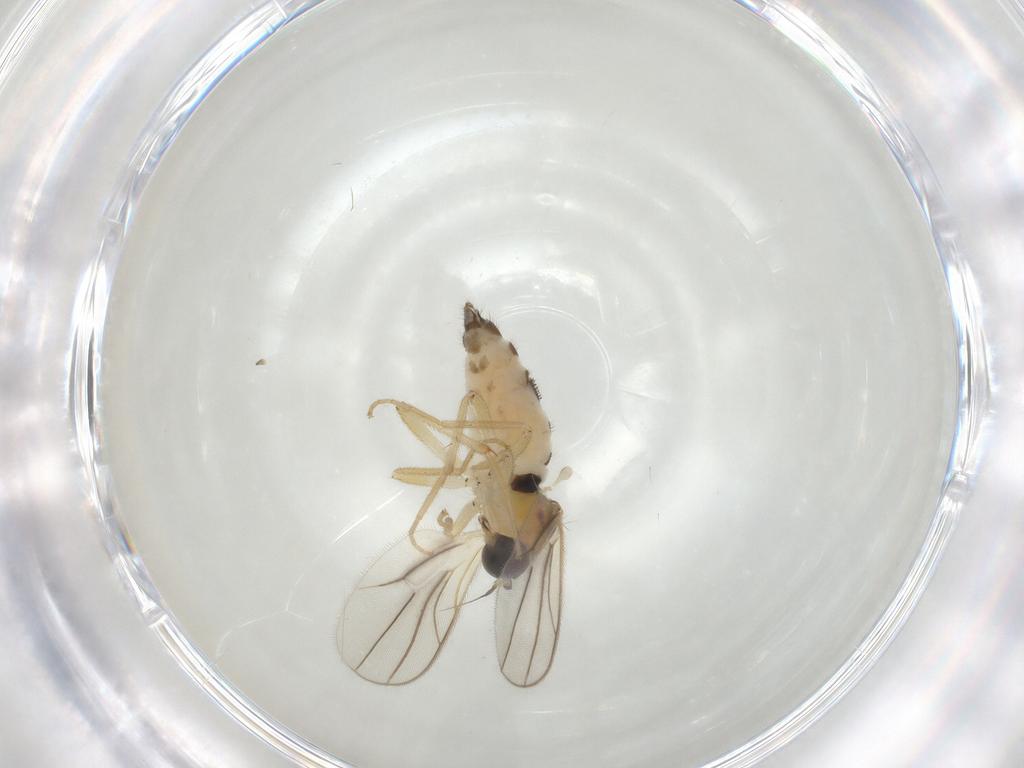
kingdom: Animalia
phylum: Arthropoda
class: Insecta
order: Diptera
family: Hybotidae
